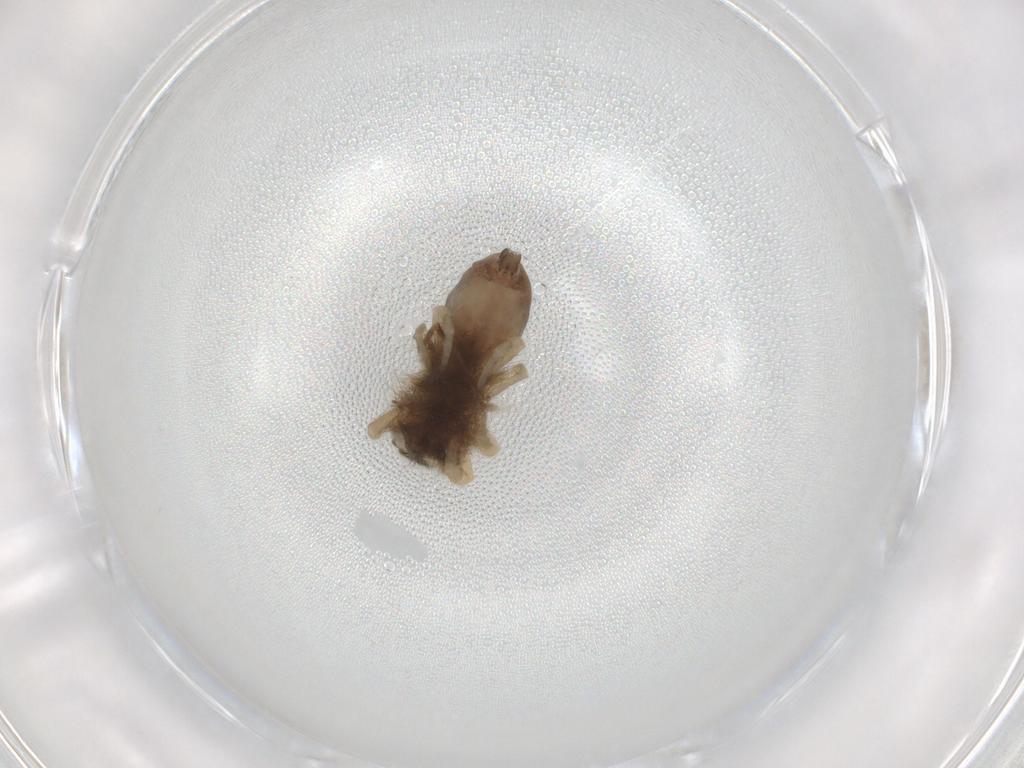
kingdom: Animalia
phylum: Arthropoda
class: Arachnida
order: Araneae
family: Salticidae
